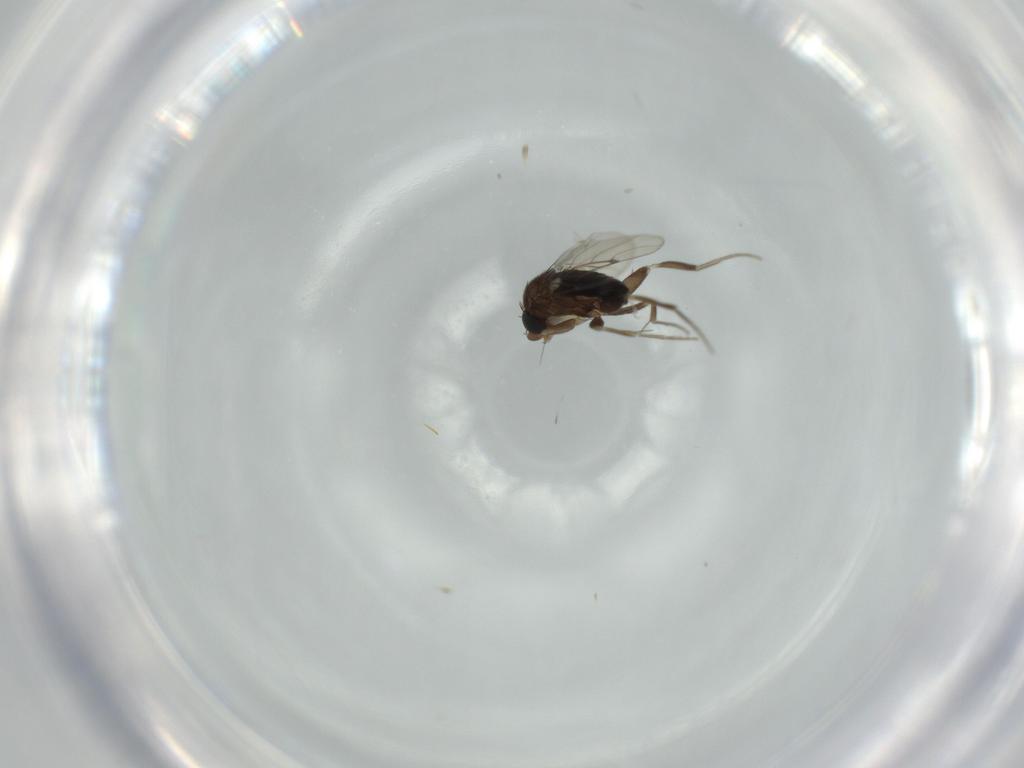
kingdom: Animalia
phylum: Arthropoda
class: Insecta
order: Diptera
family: Phoridae
